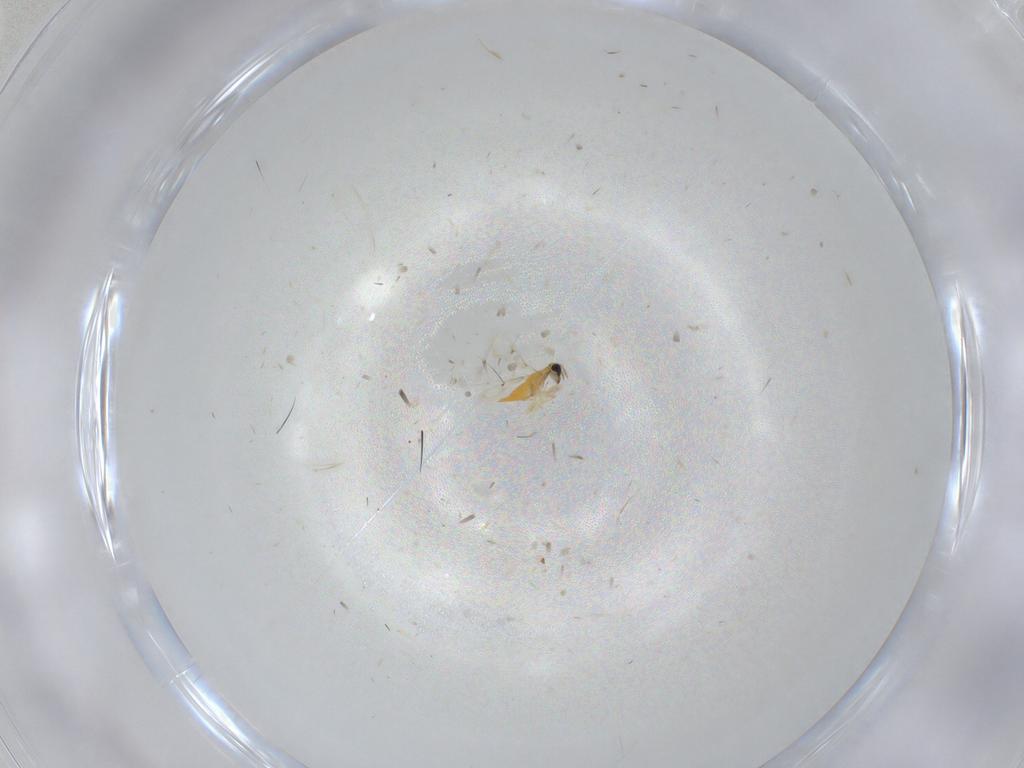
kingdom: Animalia
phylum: Arthropoda
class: Insecta
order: Hymenoptera
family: Trichogrammatidae
